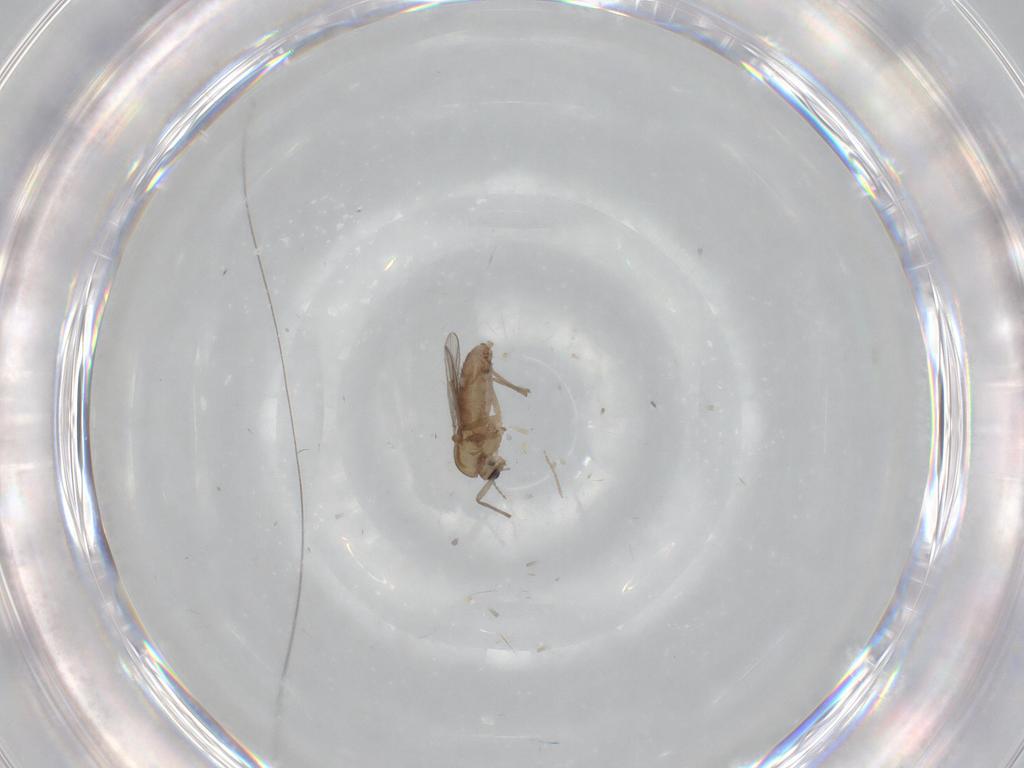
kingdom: Animalia
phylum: Arthropoda
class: Insecta
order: Diptera
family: Chironomidae
